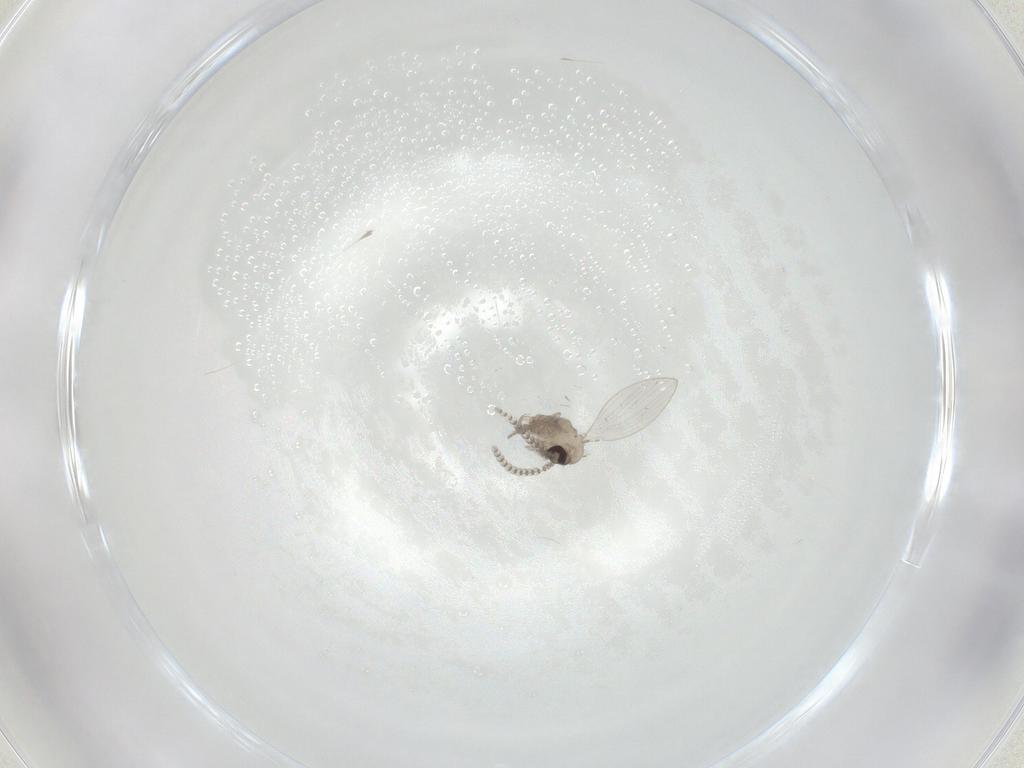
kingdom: Animalia
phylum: Arthropoda
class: Insecta
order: Diptera
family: Psychodidae
